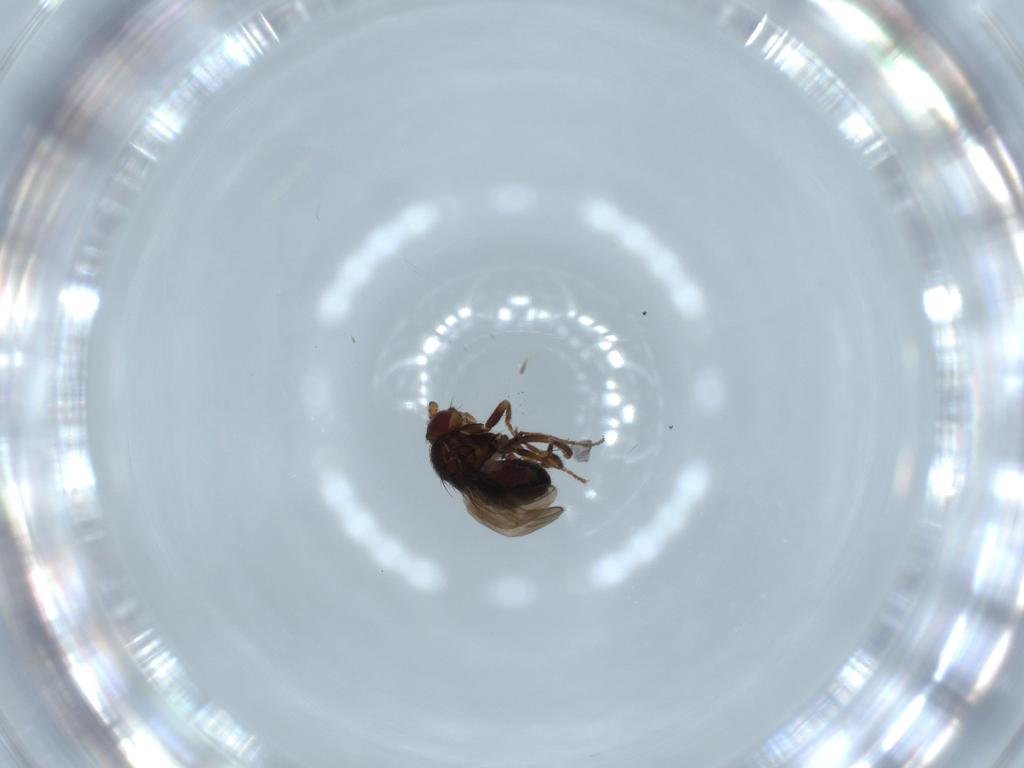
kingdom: Animalia
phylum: Arthropoda
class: Insecta
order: Diptera
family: Sphaeroceridae
